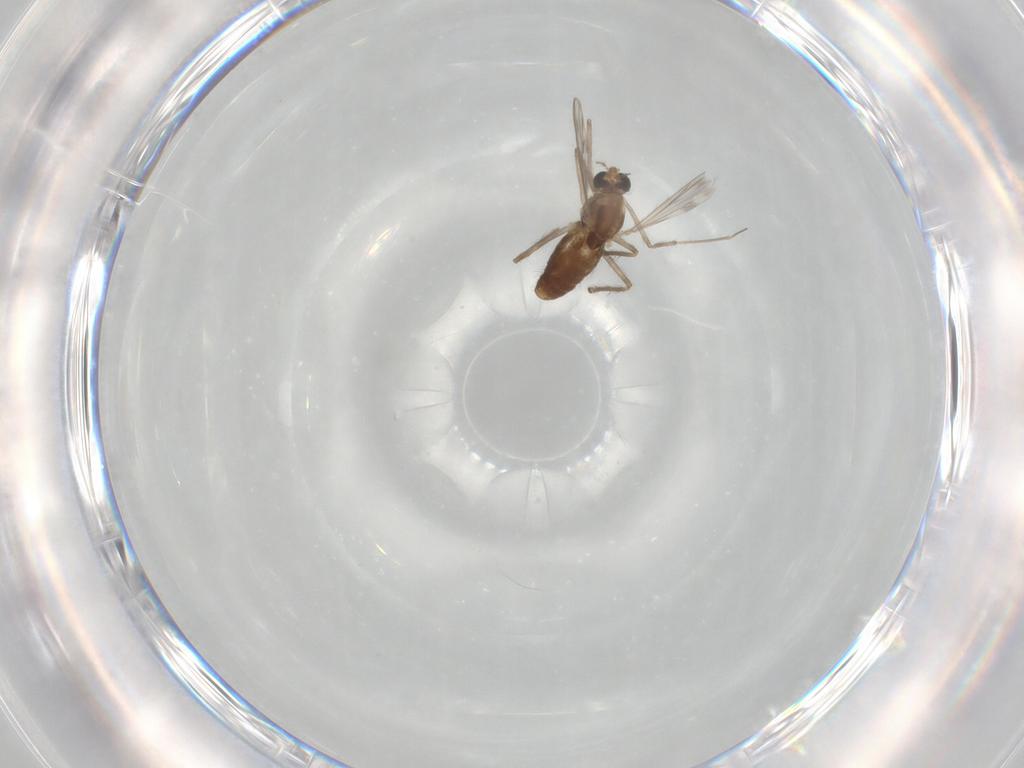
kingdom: Animalia
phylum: Arthropoda
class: Insecta
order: Diptera
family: Chironomidae
